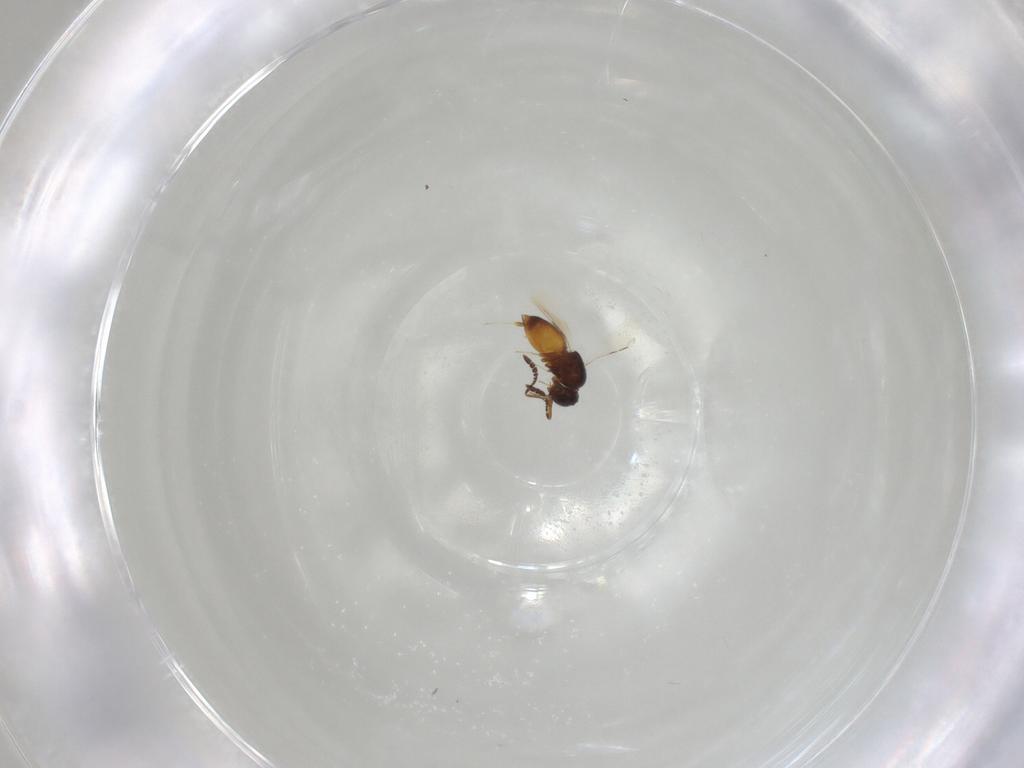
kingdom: Animalia
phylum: Arthropoda
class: Insecta
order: Hymenoptera
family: Ceraphronidae
